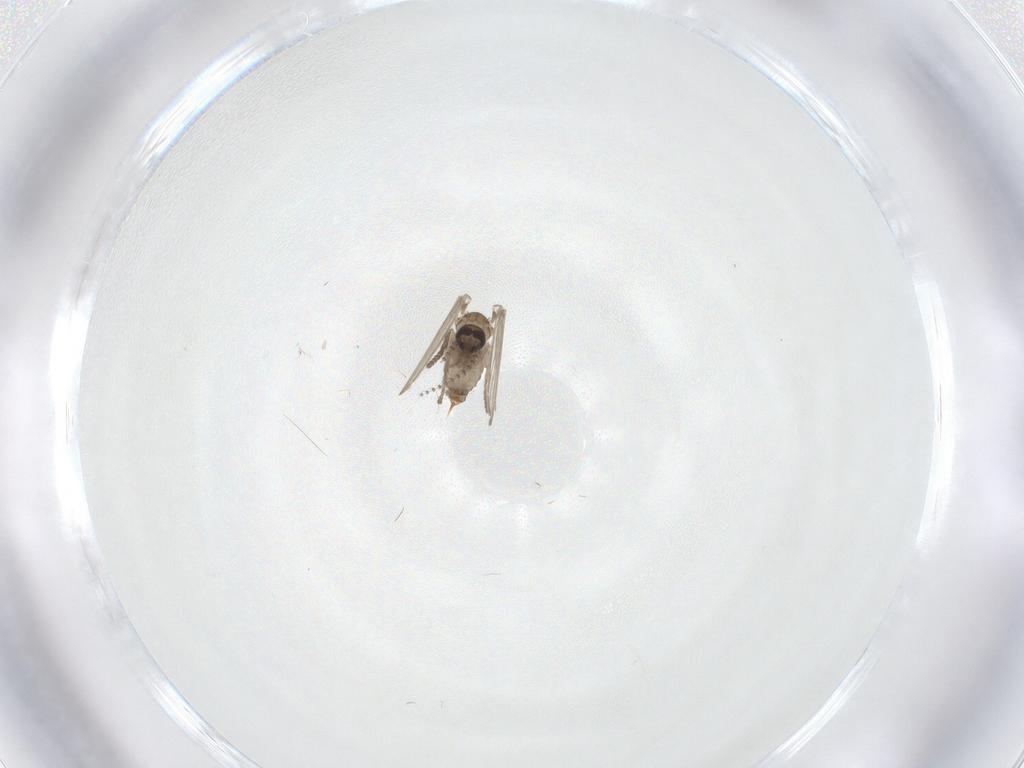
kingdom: Animalia
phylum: Arthropoda
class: Insecta
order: Diptera
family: Psychodidae
